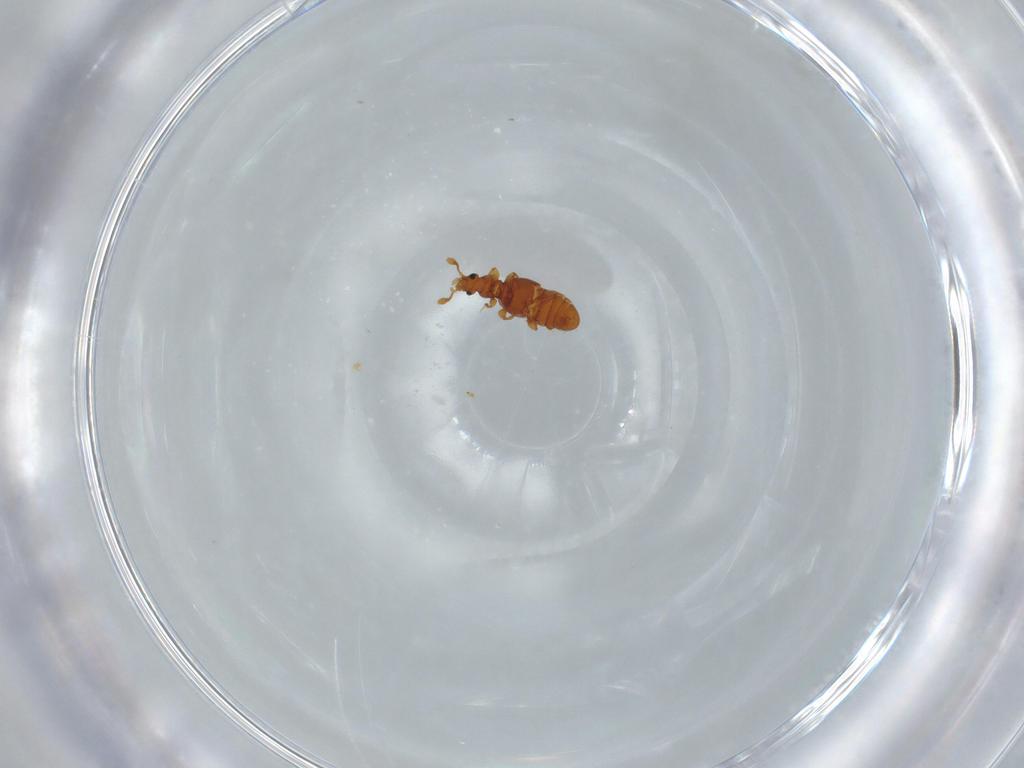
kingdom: Animalia
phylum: Arthropoda
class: Insecta
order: Coleoptera
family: Staphylinidae
